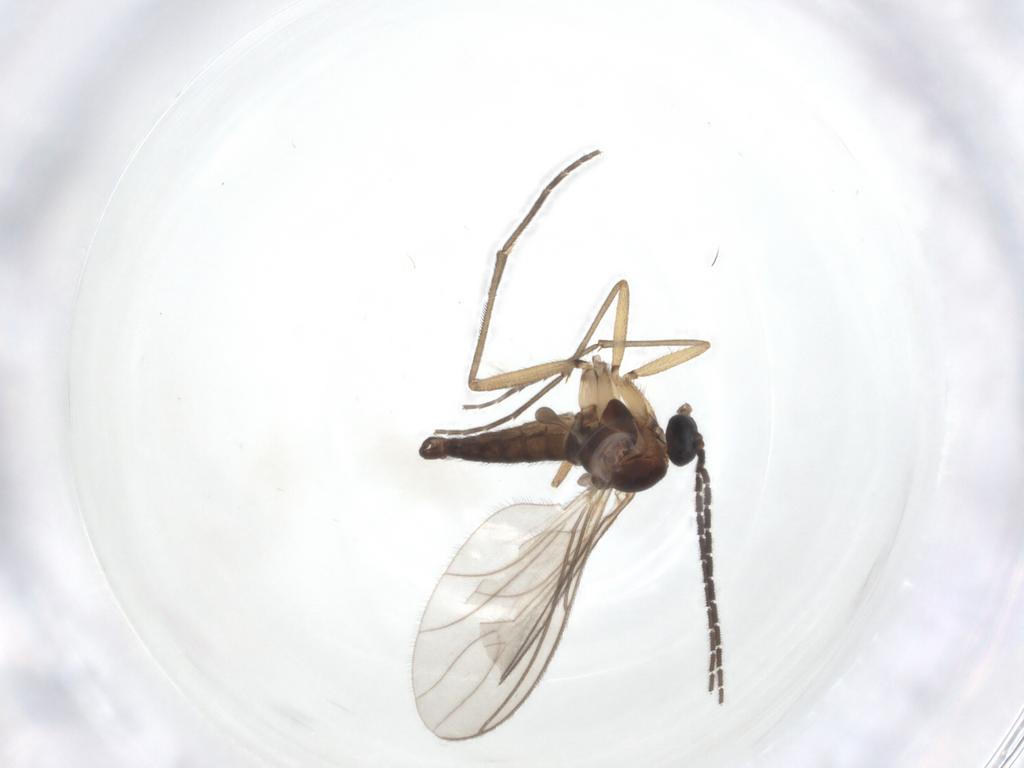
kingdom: Animalia
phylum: Arthropoda
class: Insecta
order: Diptera
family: Sciaridae
